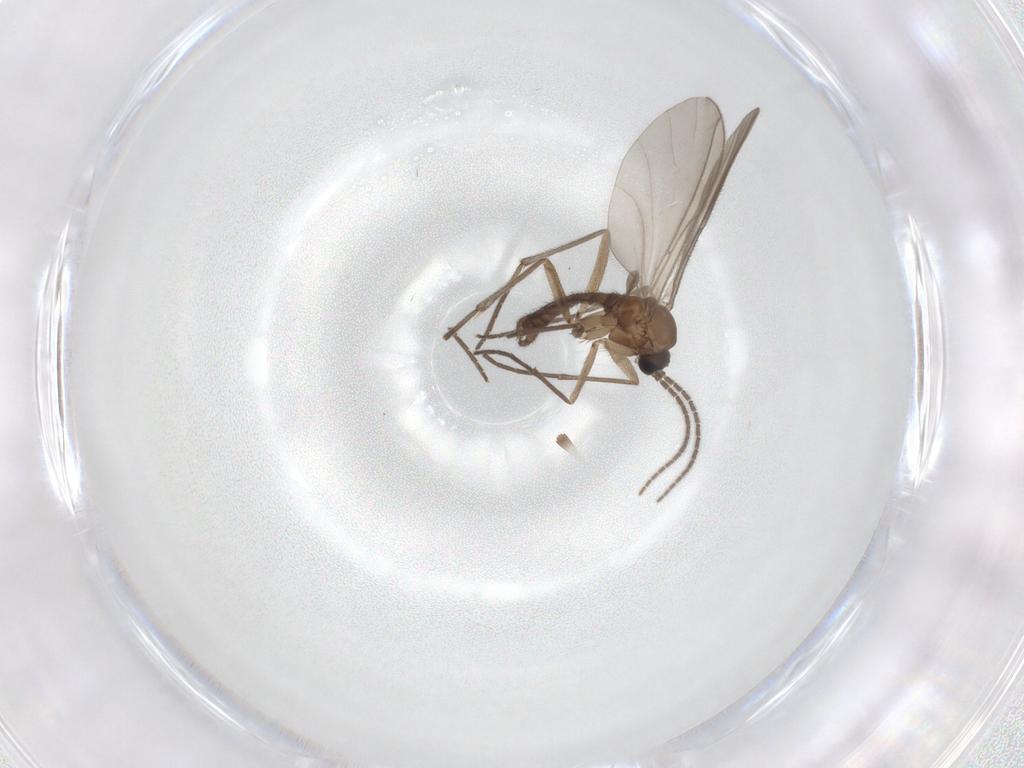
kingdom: Animalia
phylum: Arthropoda
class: Insecta
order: Diptera
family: Sciaridae
